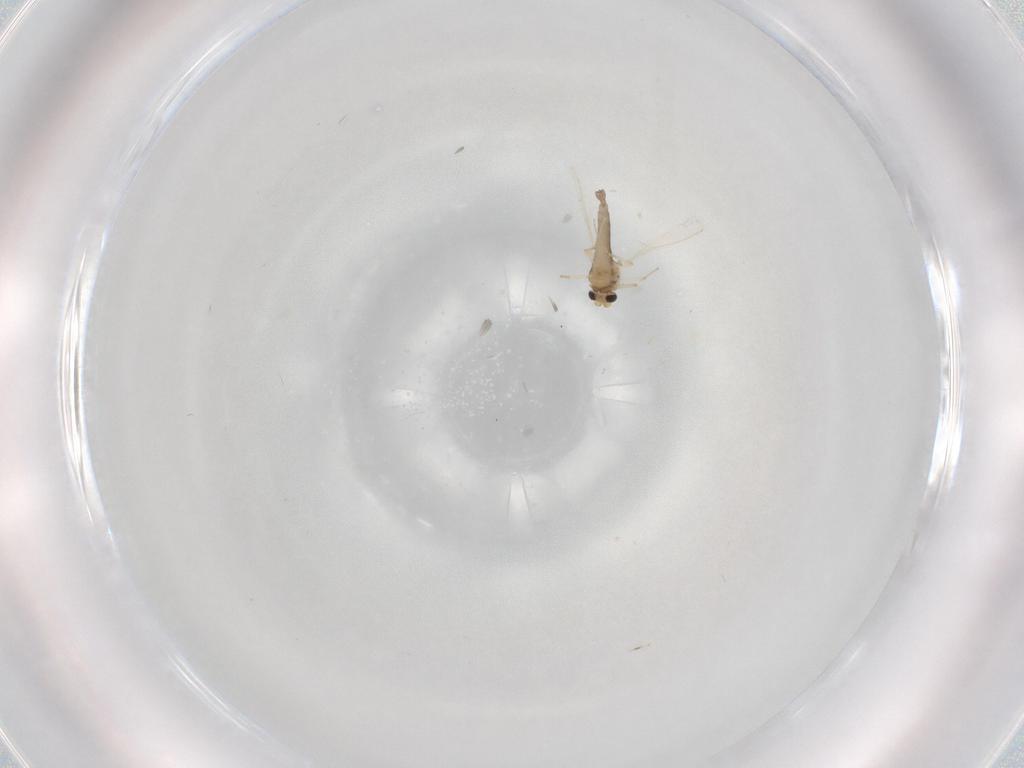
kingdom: Animalia
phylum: Arthropoda
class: Insecta
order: Diptera
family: Chironomidae
